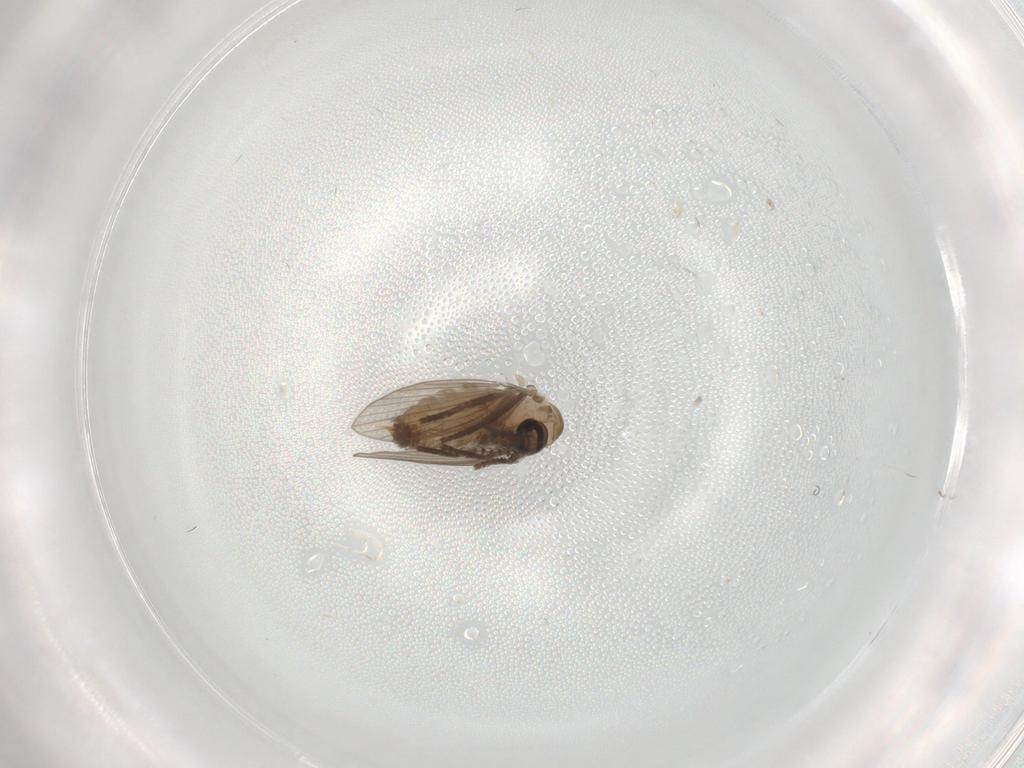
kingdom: Animalia
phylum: Arthropoda
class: Insecta
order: Diptera
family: Psychodidae
